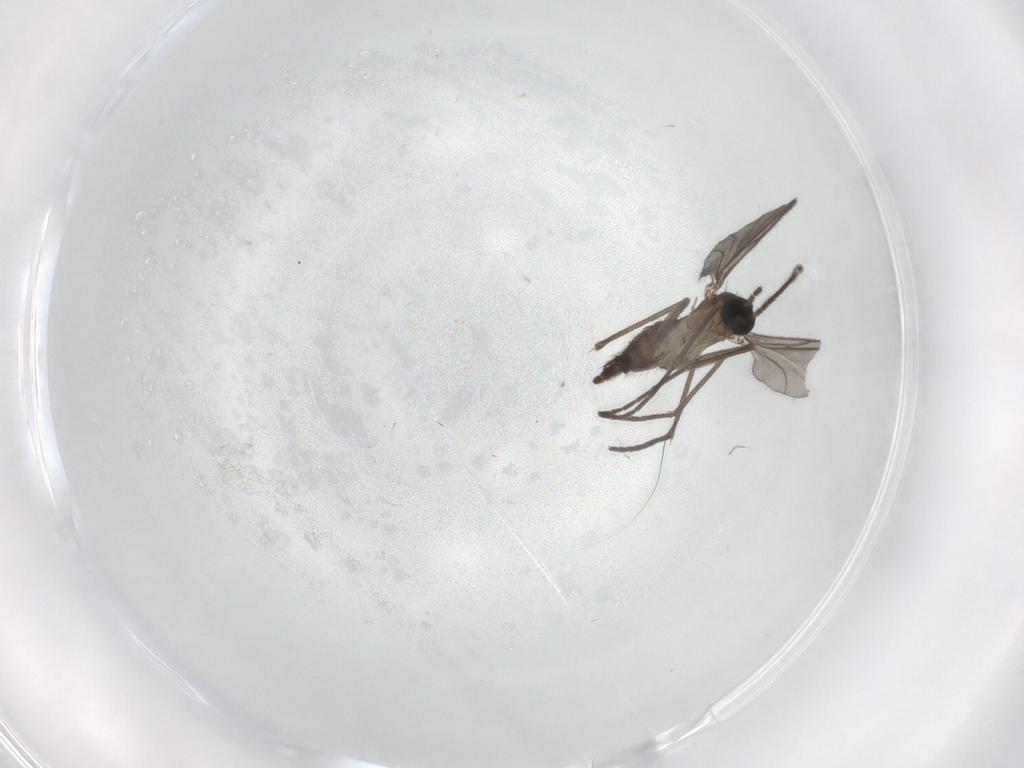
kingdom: Animalia
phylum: Arthropoda
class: Insecta
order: Diptera
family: Sciaridae
